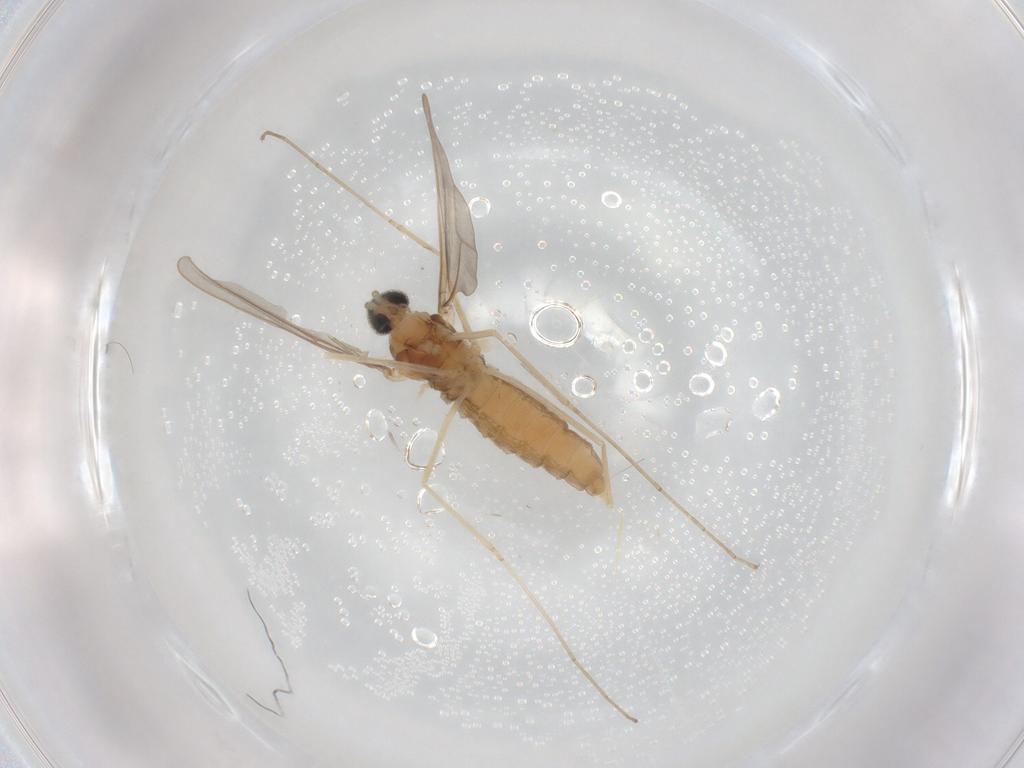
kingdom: Animalia
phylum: Arthropoda
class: Insecta
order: Diptera
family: Cecidomyiidae
